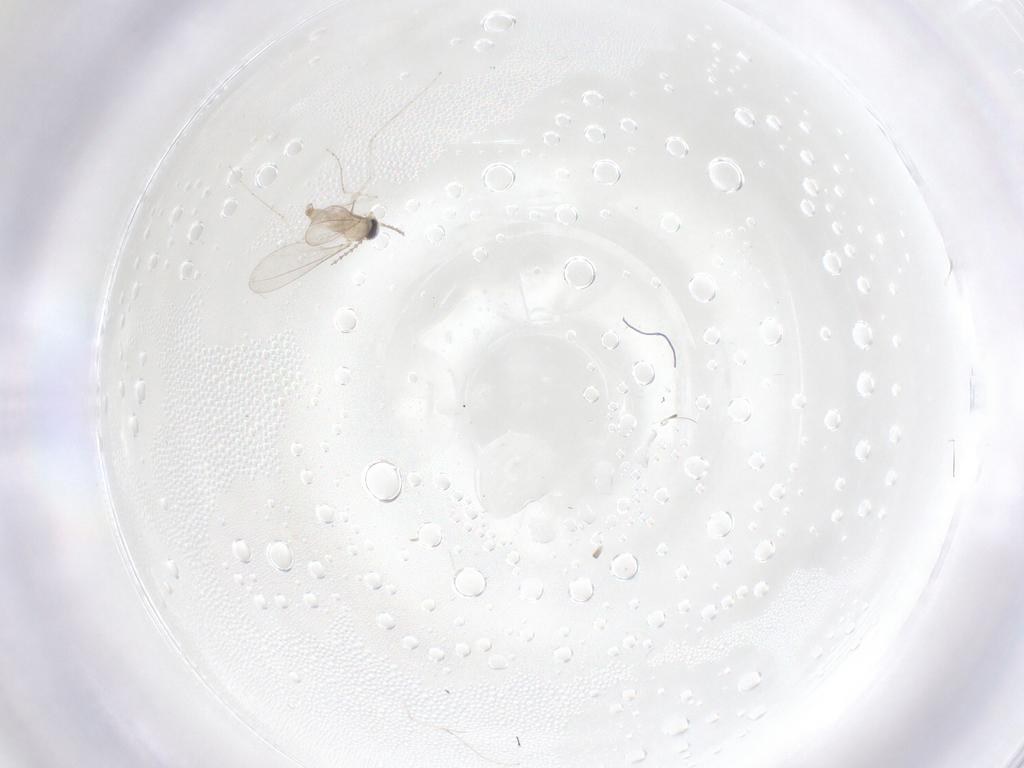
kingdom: Animalia
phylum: Arthropoda
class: Insecta
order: Diptera
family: Cecidomyiidae
